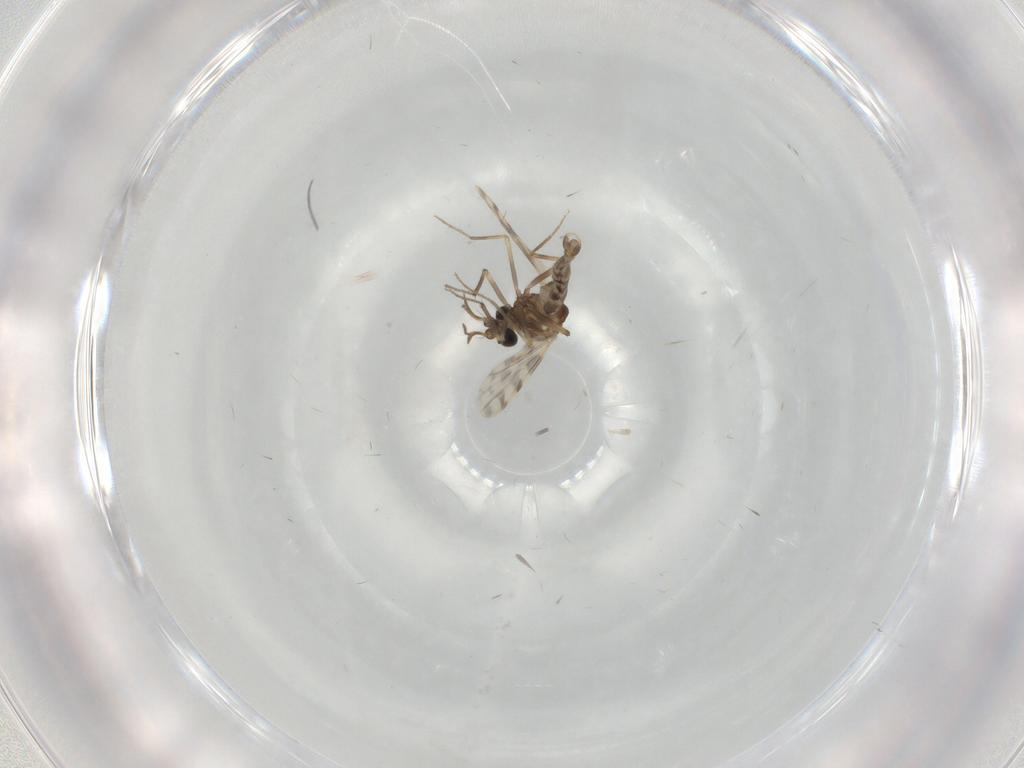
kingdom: Animalia
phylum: Arthropoda
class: Insecta
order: Diptera
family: Ceratopogonidae
